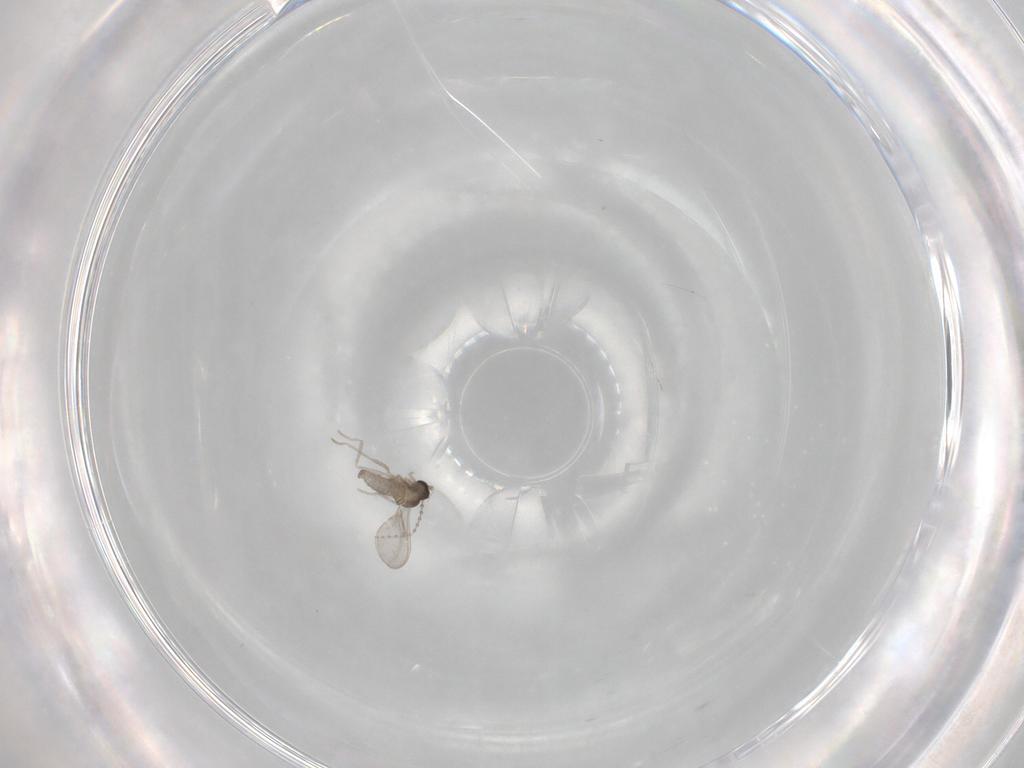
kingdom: Animalia
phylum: Arthropoda
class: Insecta
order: Diptera
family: Cecidomyiidae
